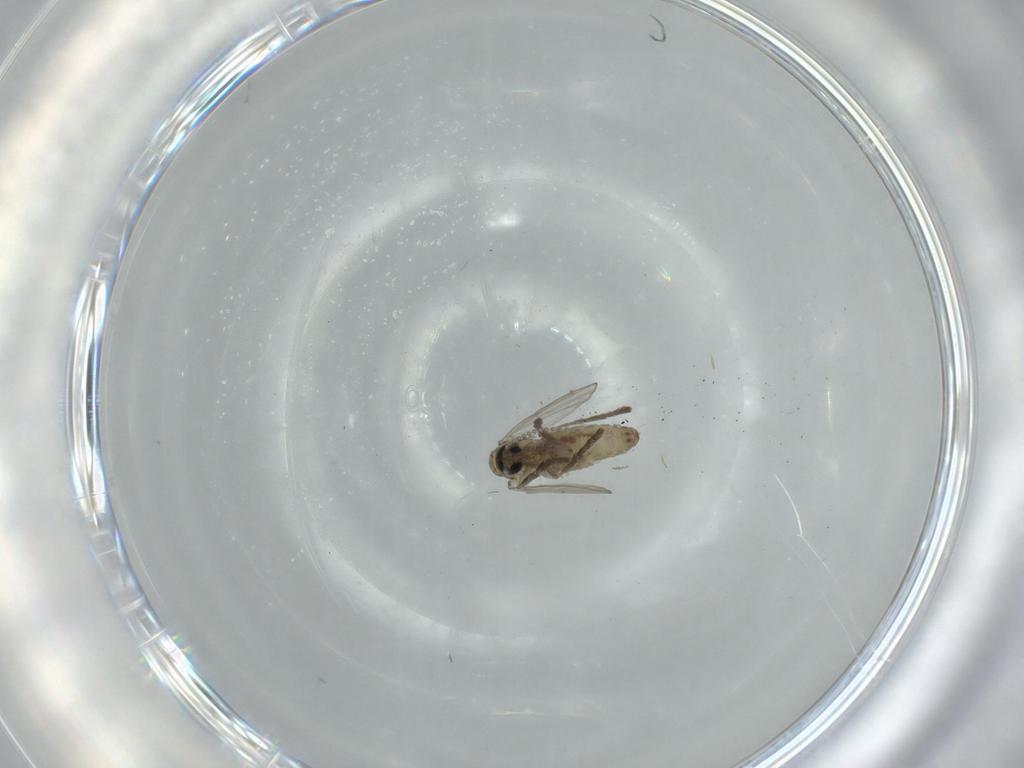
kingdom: Animalia
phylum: Arthropoda
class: Insecta
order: Diptera
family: Psychodidae
